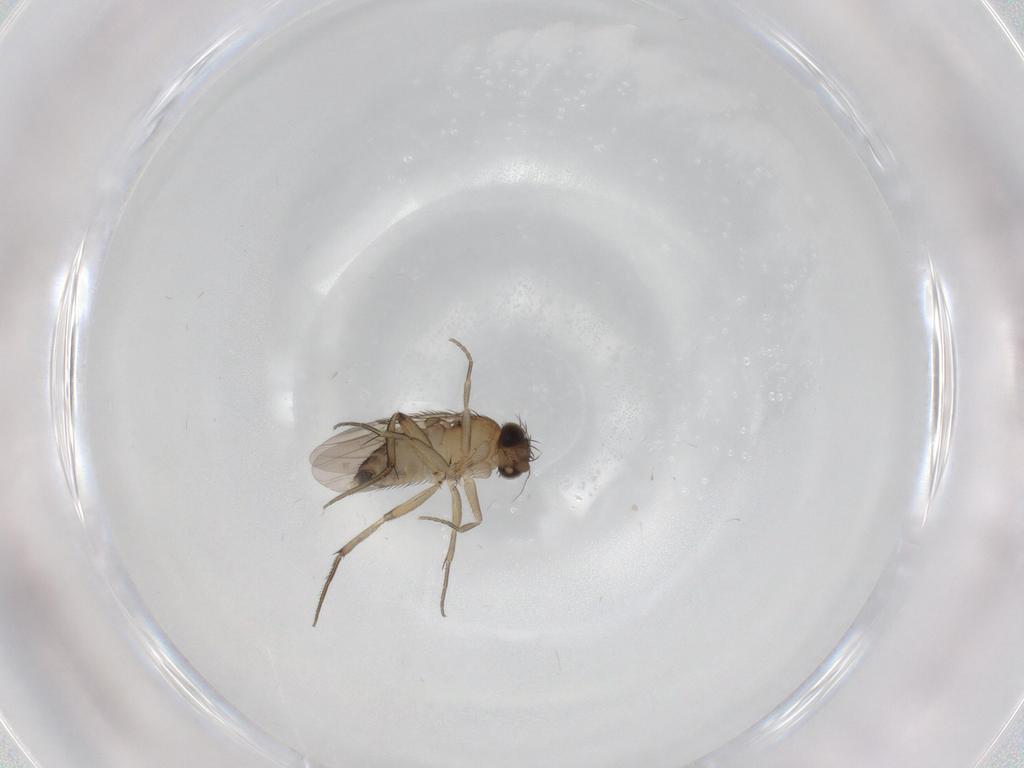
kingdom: Animalia
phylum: Arthropoda
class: Insecta
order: Diptera
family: Phoridae
